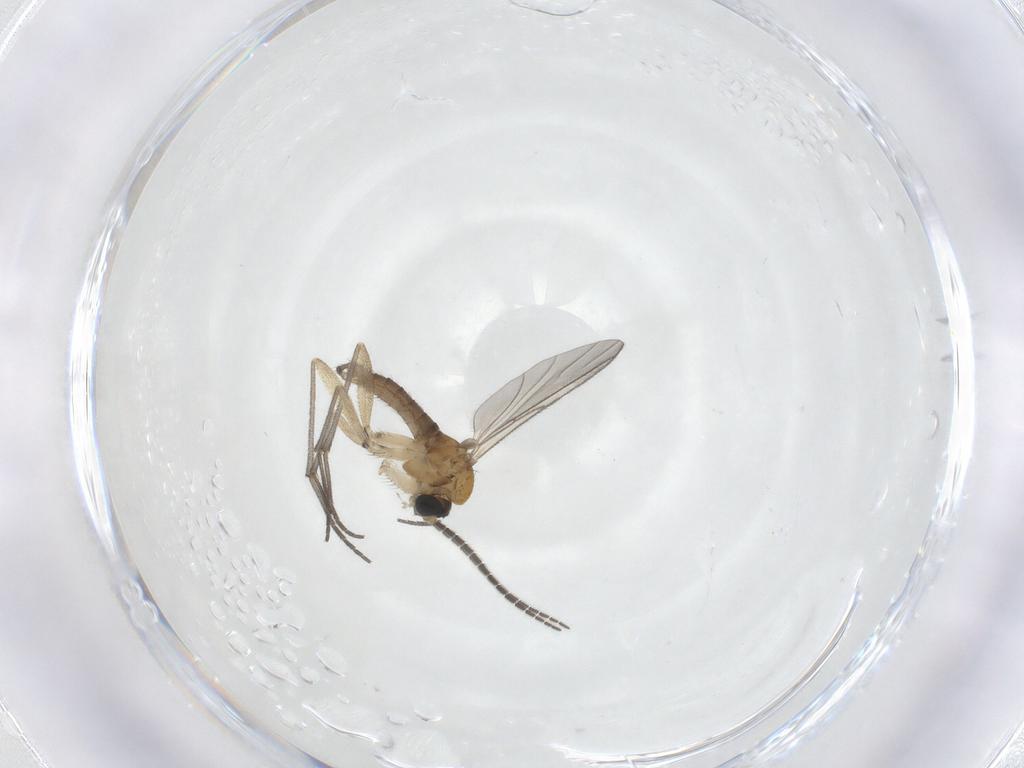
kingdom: Animalia
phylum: Arthropoda
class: Insecta
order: Diptera
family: Sciaridae
